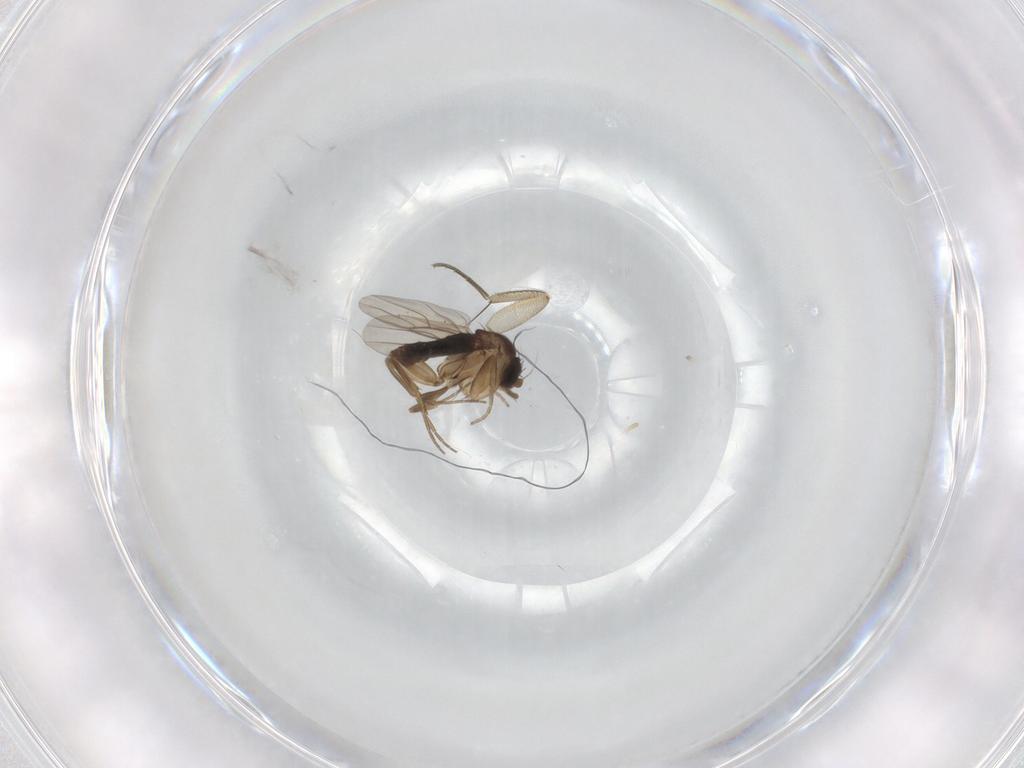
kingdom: Animalia
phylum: Arthropoda
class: Insecta
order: Diptera
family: Phoridae
